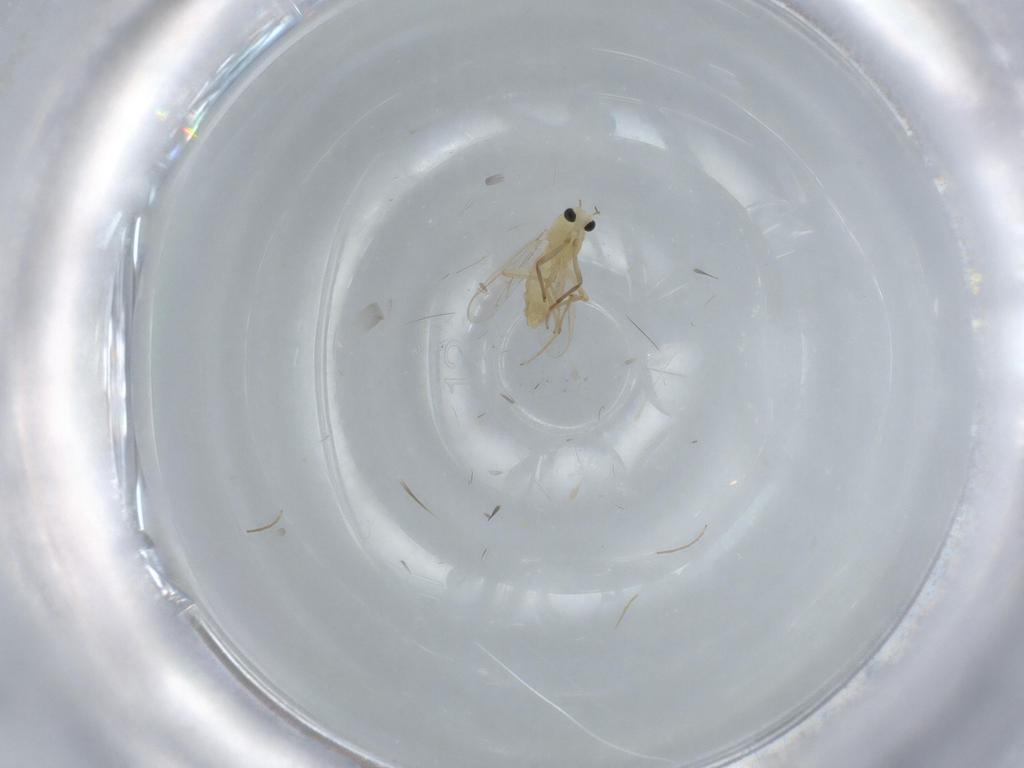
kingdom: Animalia
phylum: Arthropoda
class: Insecta
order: Diptera
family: Chironomidae
